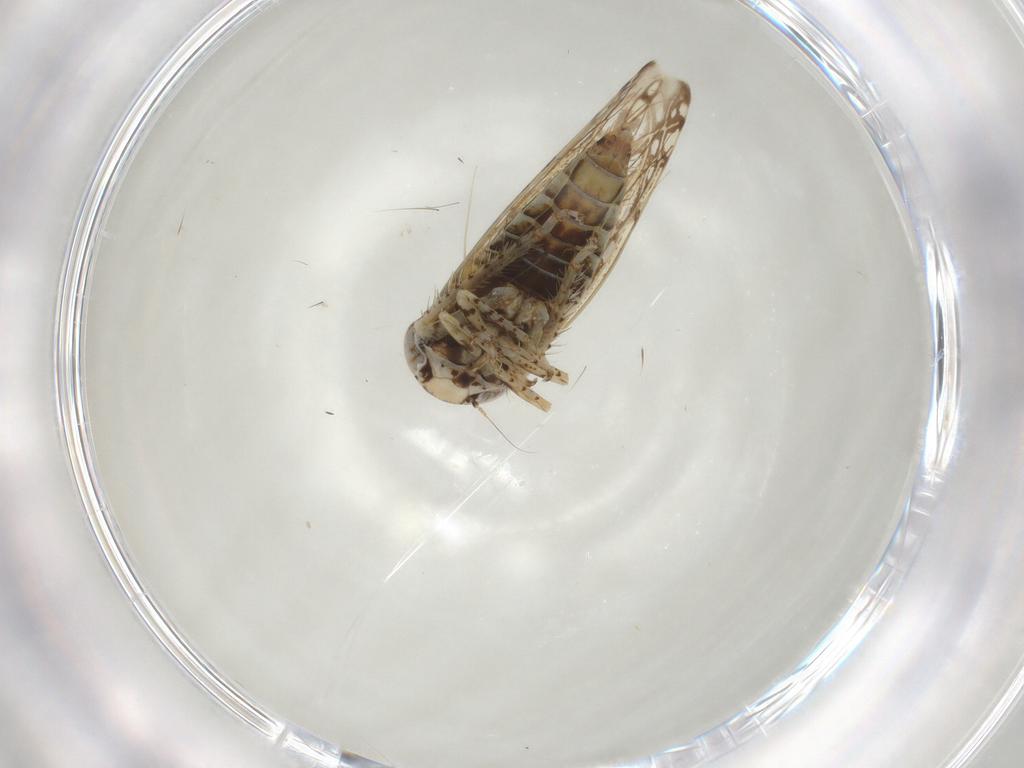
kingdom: Animalia
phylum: Arthropoda
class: Insecta
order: Hemiptera
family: Cicadellidae
